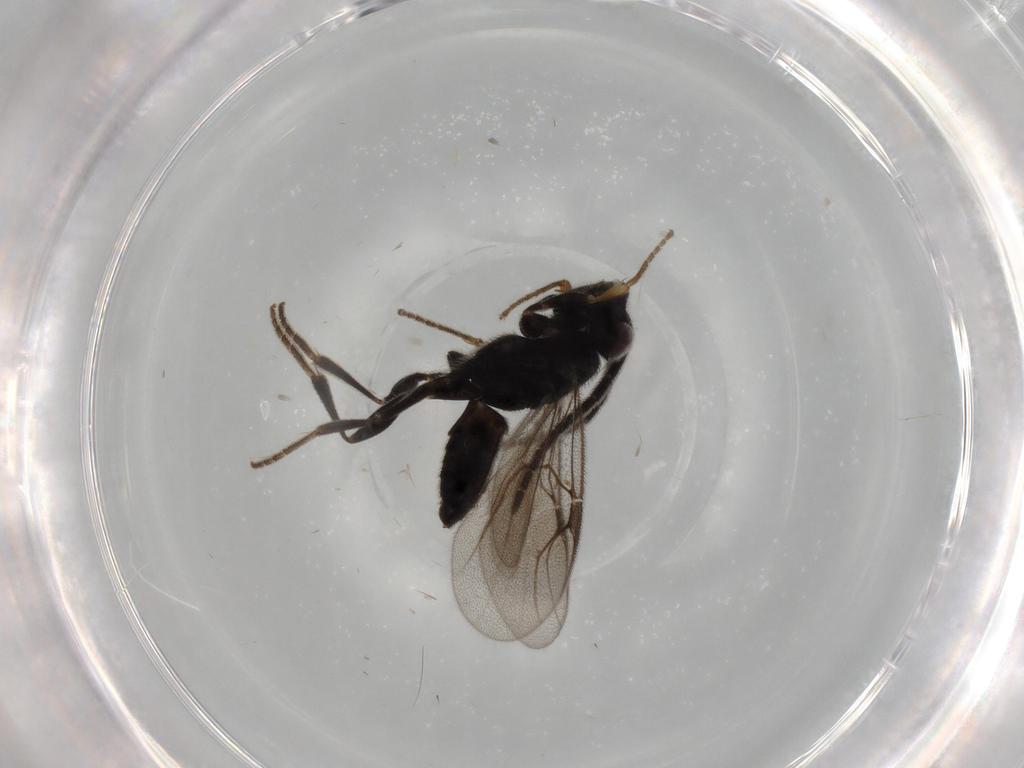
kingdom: Animalia
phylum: Arthropoda
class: Insecta
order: Hymenoptera
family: Dryinidae
